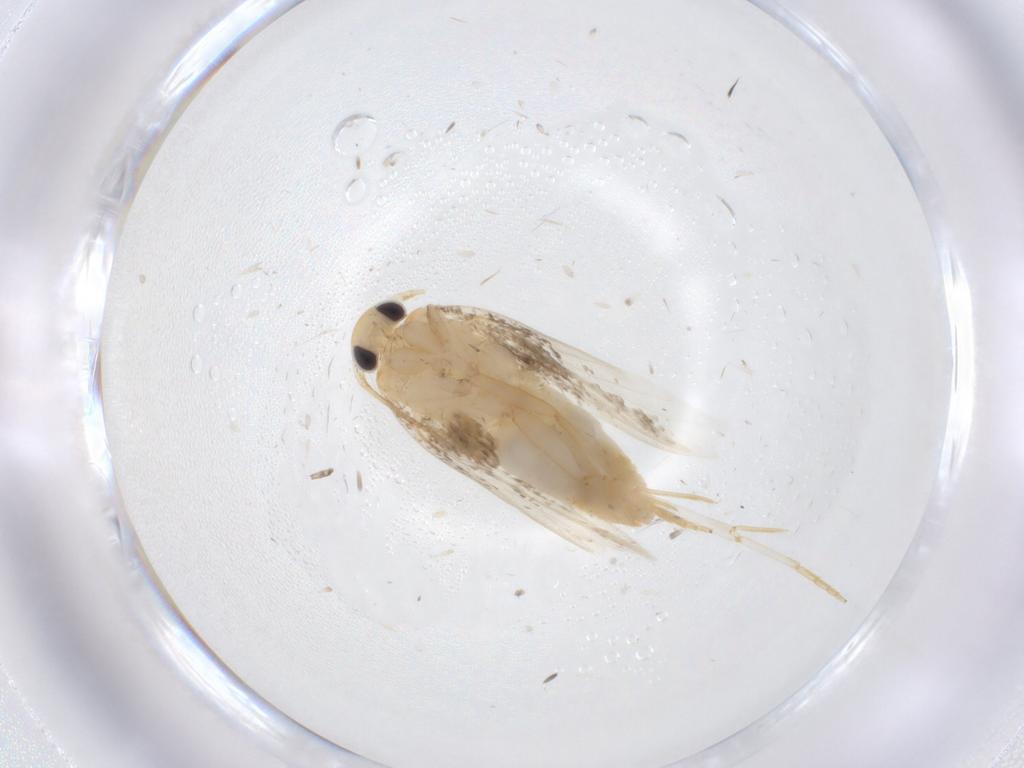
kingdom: Animalia
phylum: Arthropoda
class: Insecta
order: Lepidoptera
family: Erebidae
